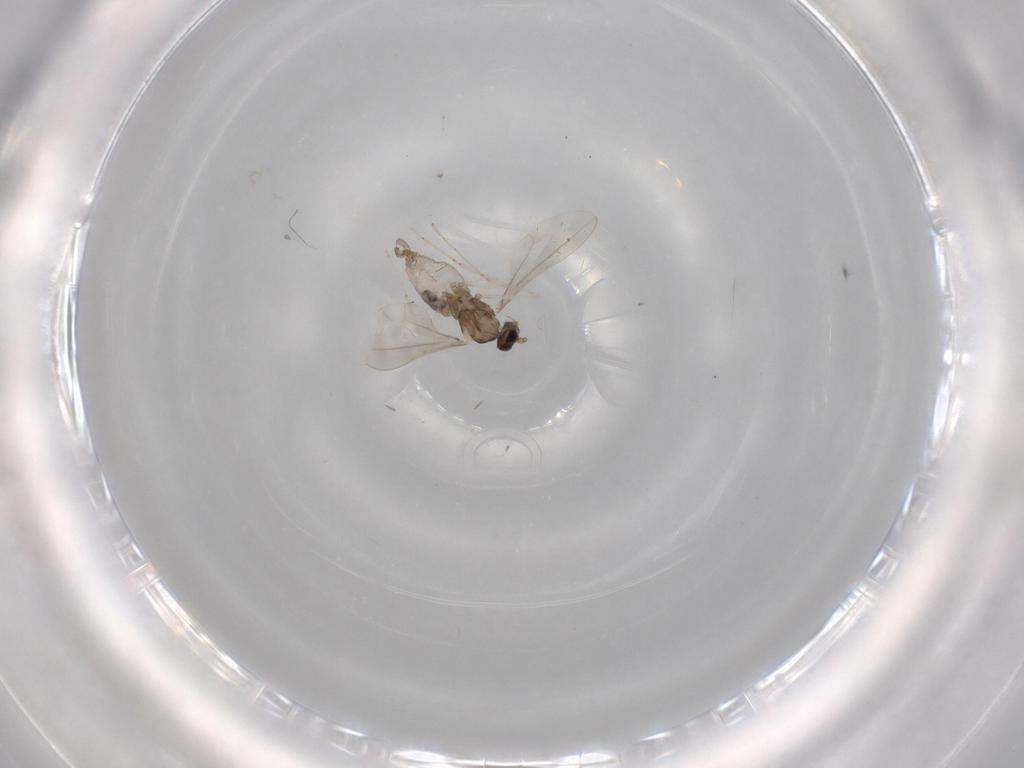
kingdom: Animalia
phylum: Arthropoda
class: Insecta
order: Diptera
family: Cecidomyiidae
